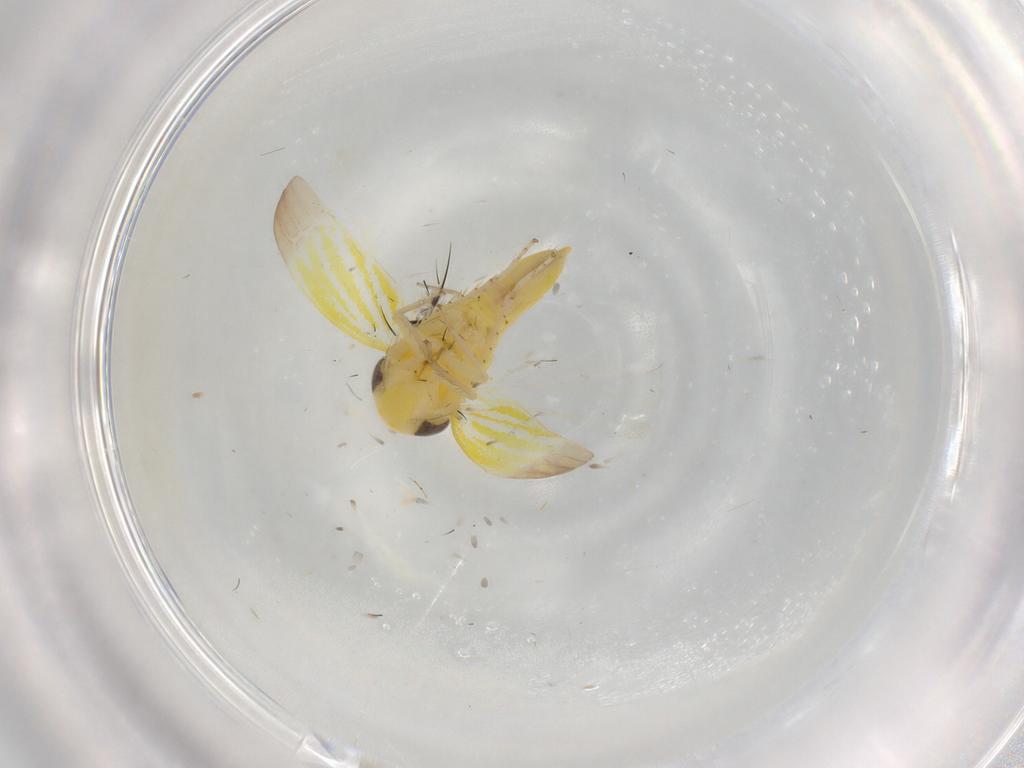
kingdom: Animalia
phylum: Arthropoda
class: Insecta
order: Hemiptera
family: Cicadellidae
